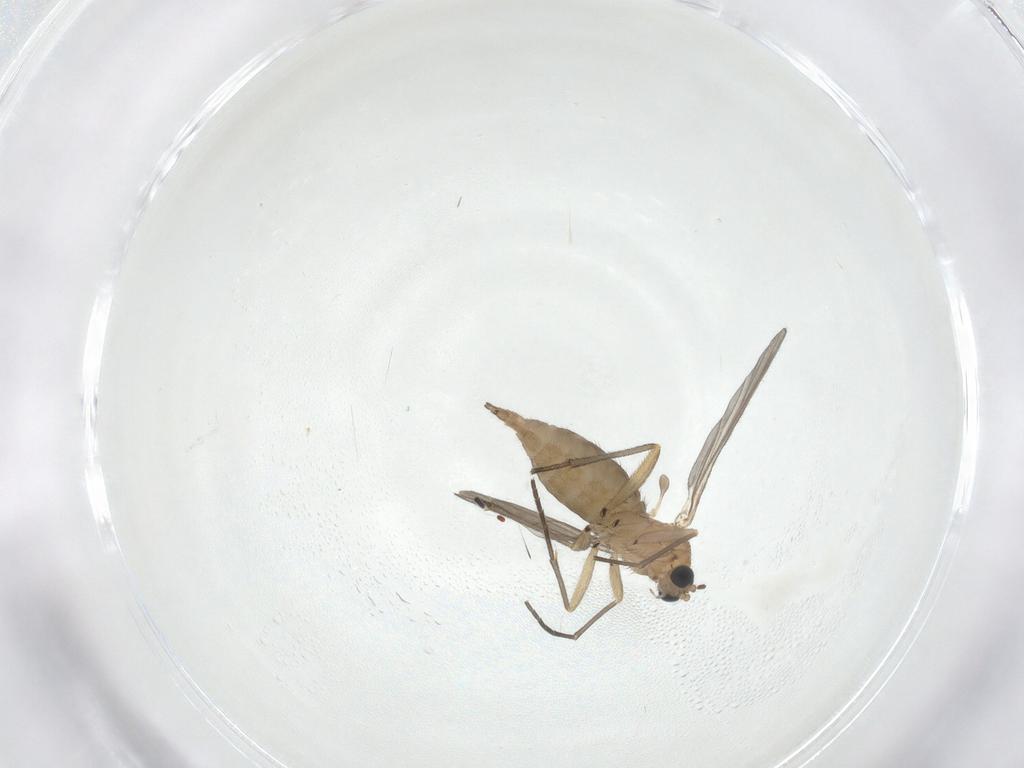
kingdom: Animalia
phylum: Arthropoda
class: Insecta
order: Diptera
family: Sciaridae
